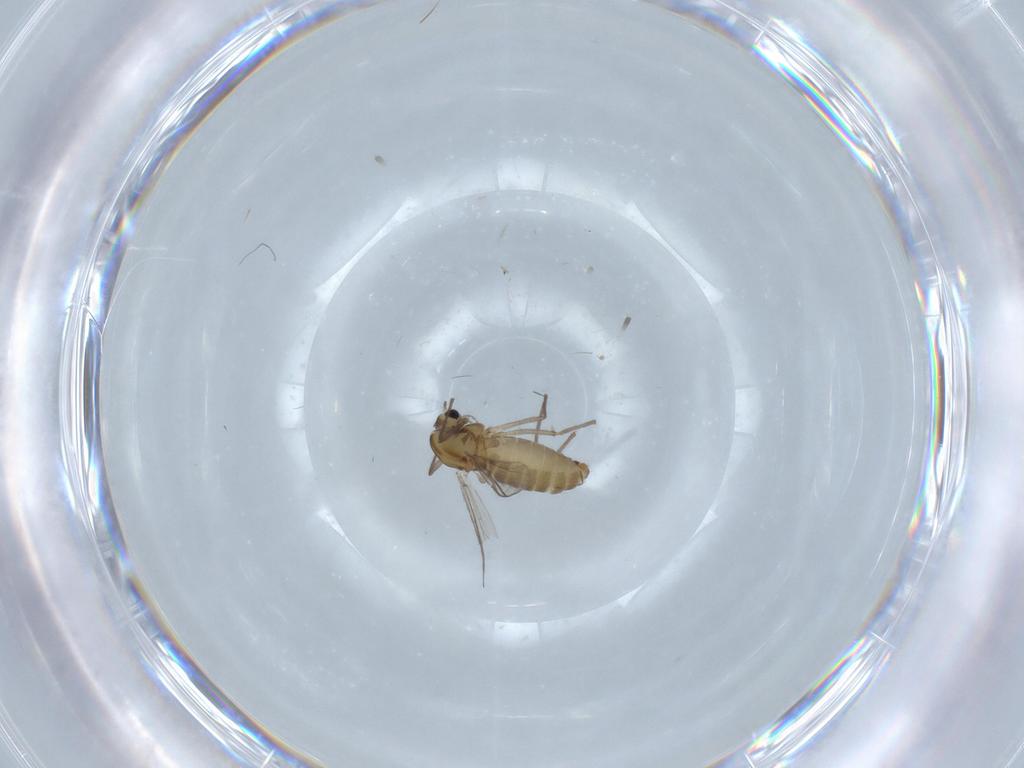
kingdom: Animalia
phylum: Arthropoda
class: Insecta
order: Diptera
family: Chironomidae
